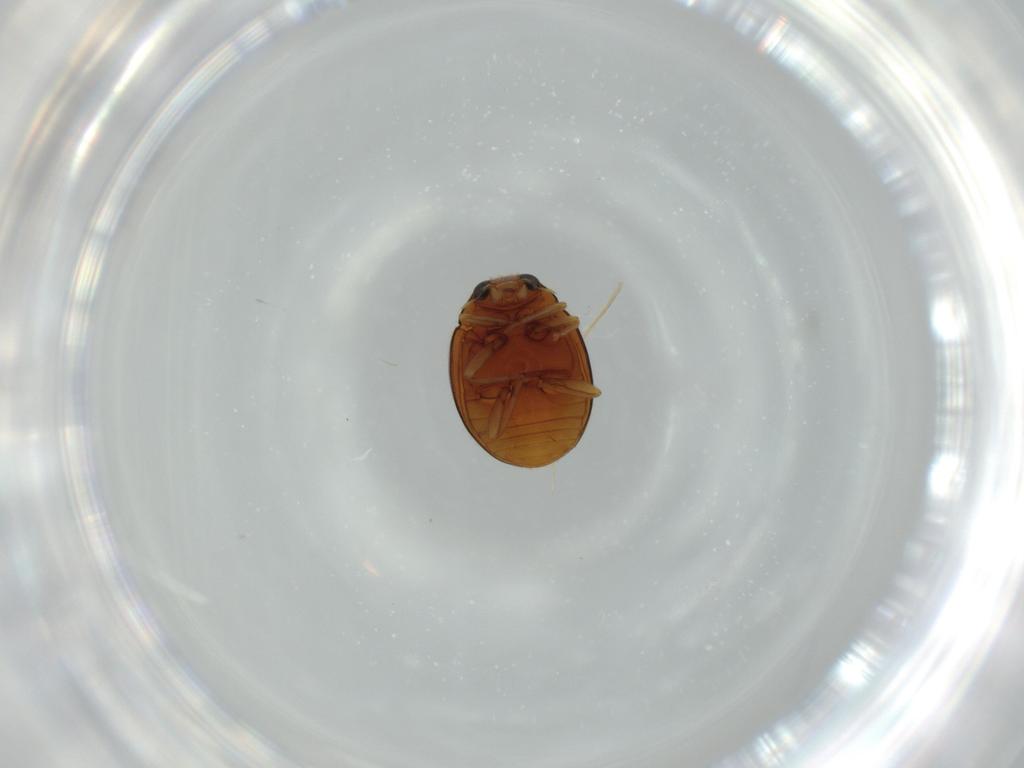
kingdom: Animalia
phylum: Arthropoda
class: Insecta
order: Coleoptera
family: Coccinellidae
